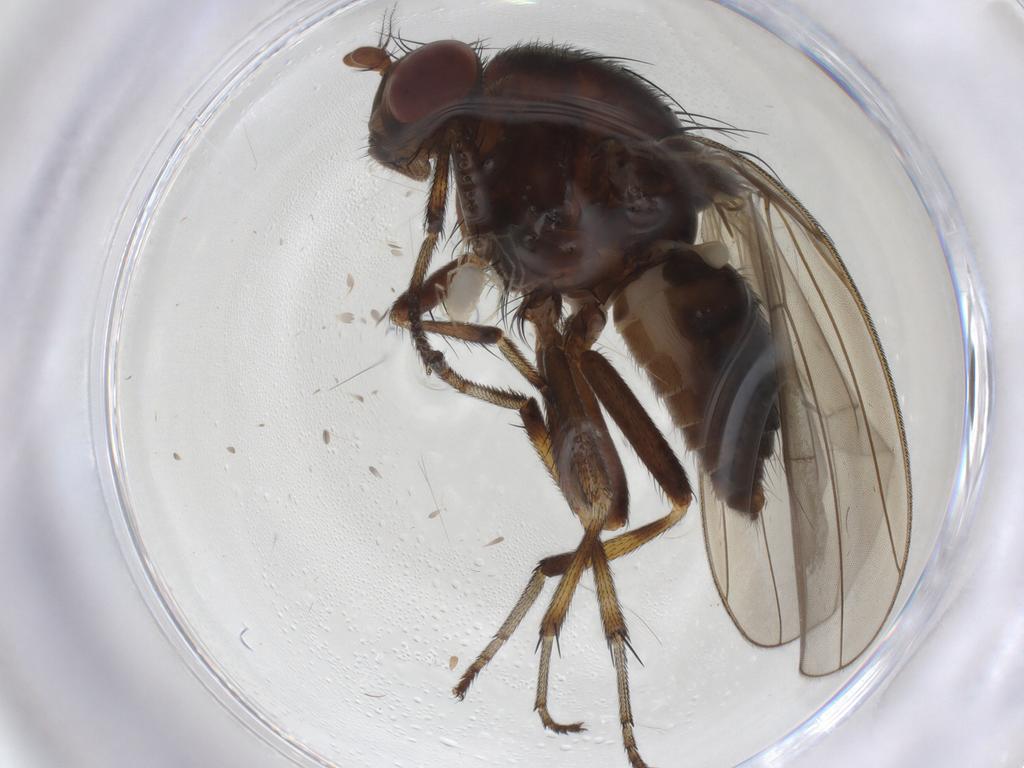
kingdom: Animalia
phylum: Arthropoda
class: Insecta
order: Diptera
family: Lauxaniidae
